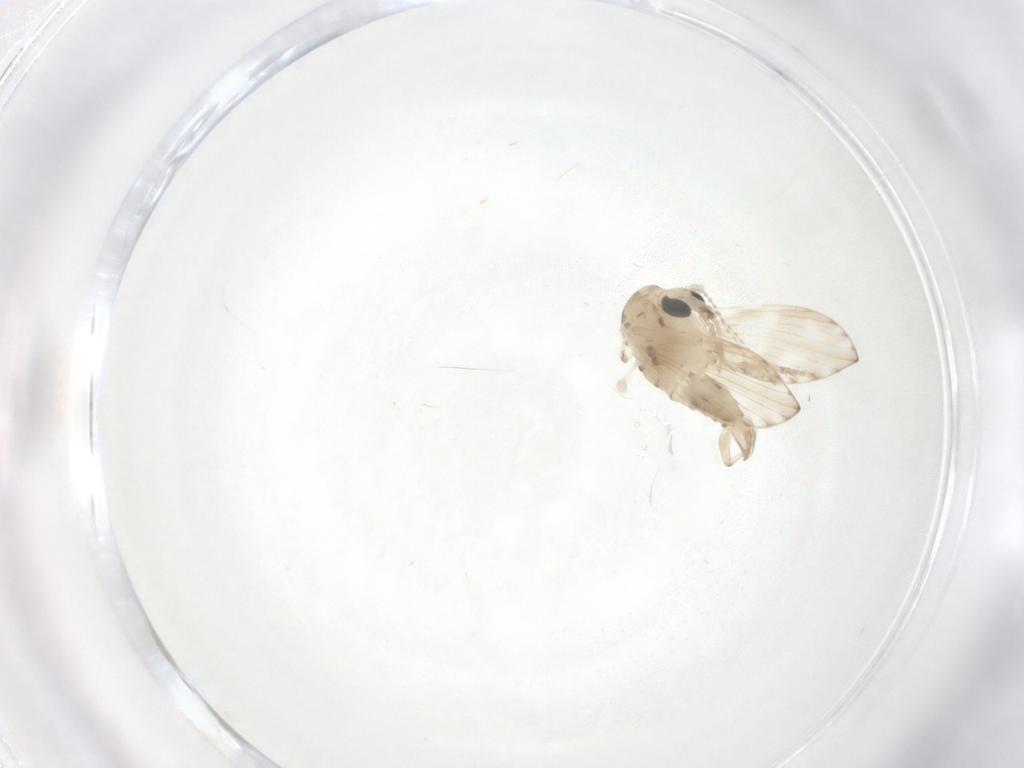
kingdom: Animalia
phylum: Arthropoda
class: Insecta
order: Diptera
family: Psychodidae
